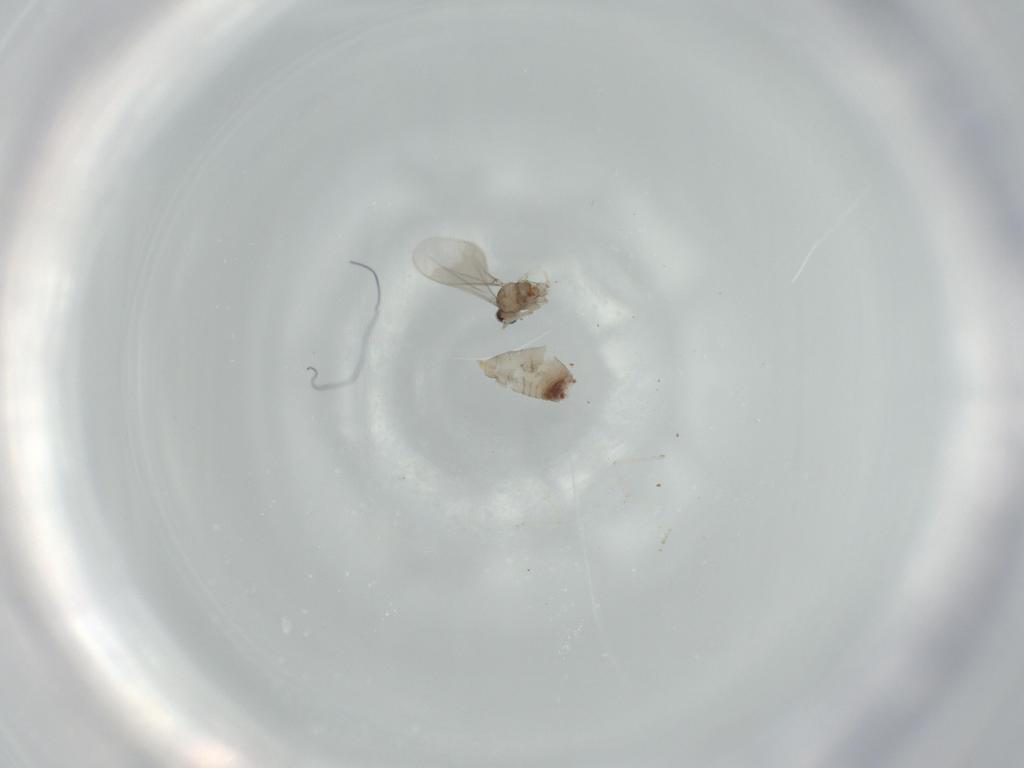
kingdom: Animalia
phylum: Arthropoda
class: Insecta
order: Diptera
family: Cecidomyiidae
